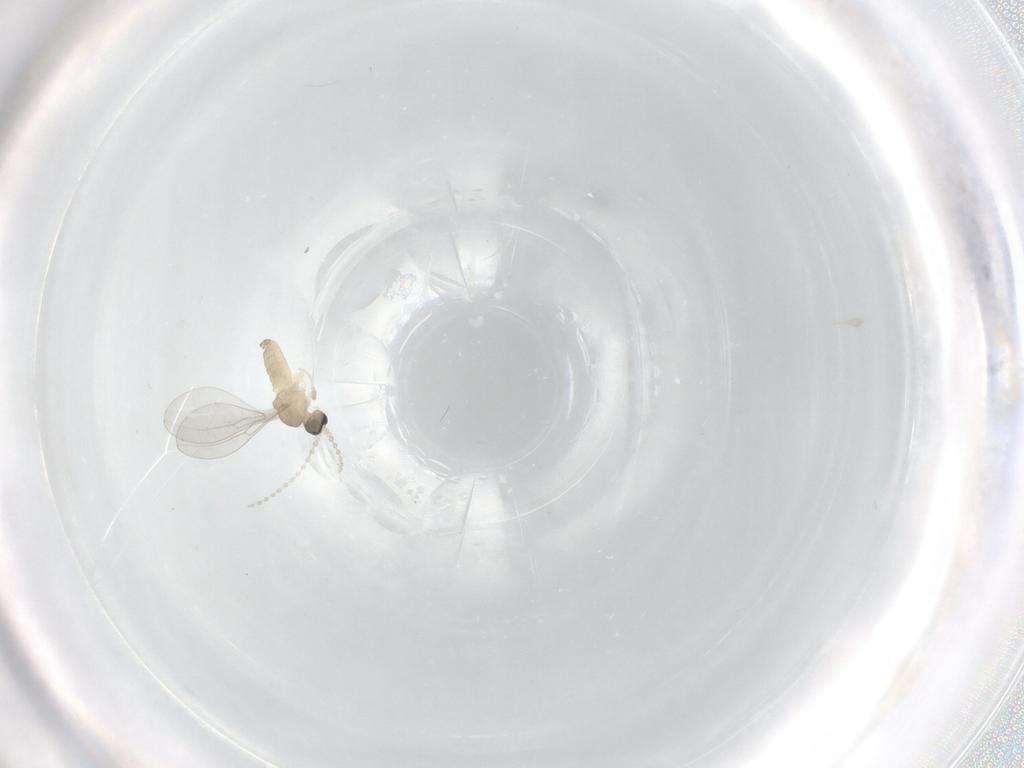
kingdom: Animalia
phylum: Arthropoda
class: Insecta
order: Diptera
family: Cecidomyiidae
